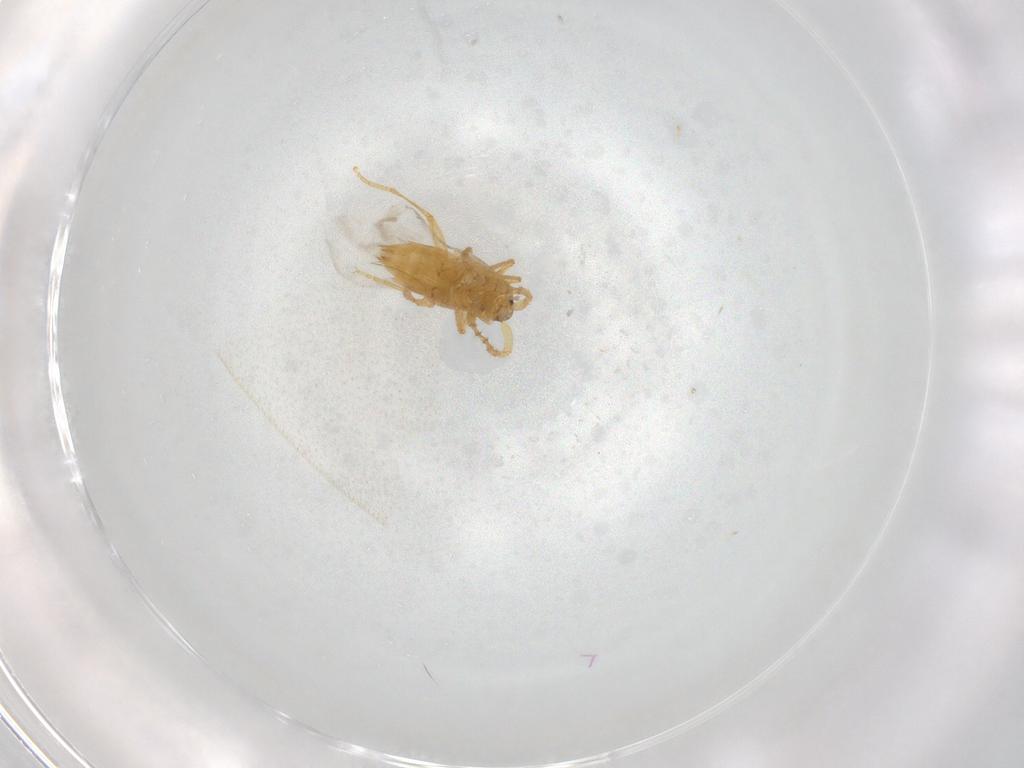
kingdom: Animalia
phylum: Arthropoda
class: Insecta
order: Coleoptera
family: Staphylinidae
